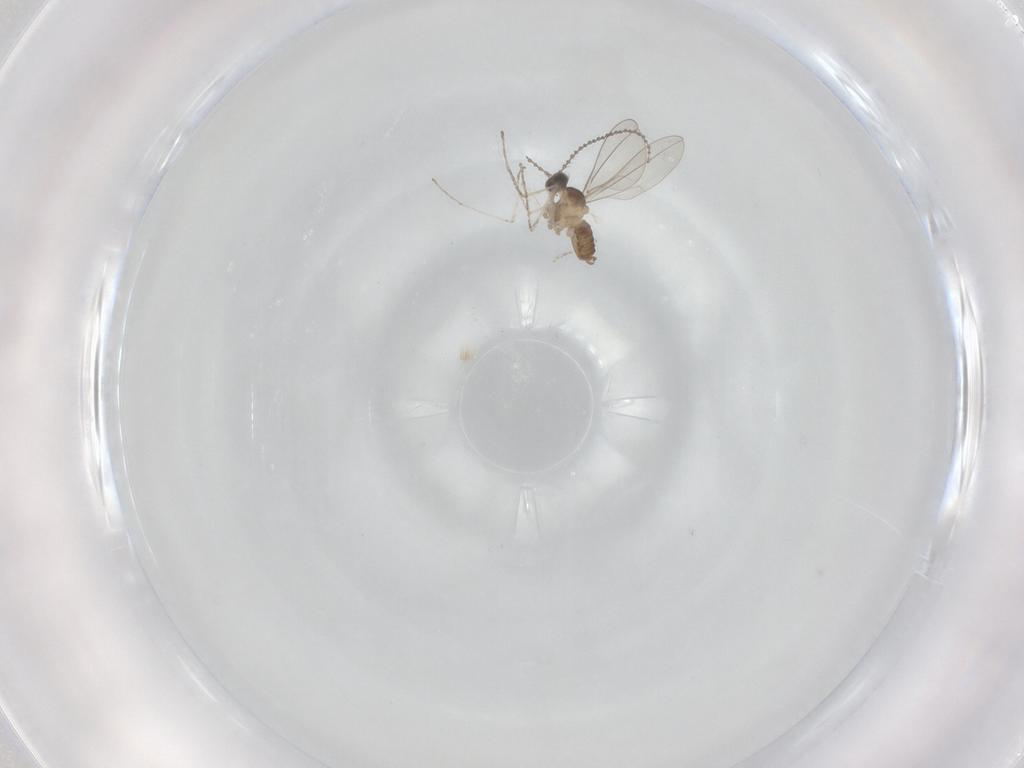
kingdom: Animalia
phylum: Arthropoda
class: Insecta
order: Diptera
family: Cecidomyiidae
